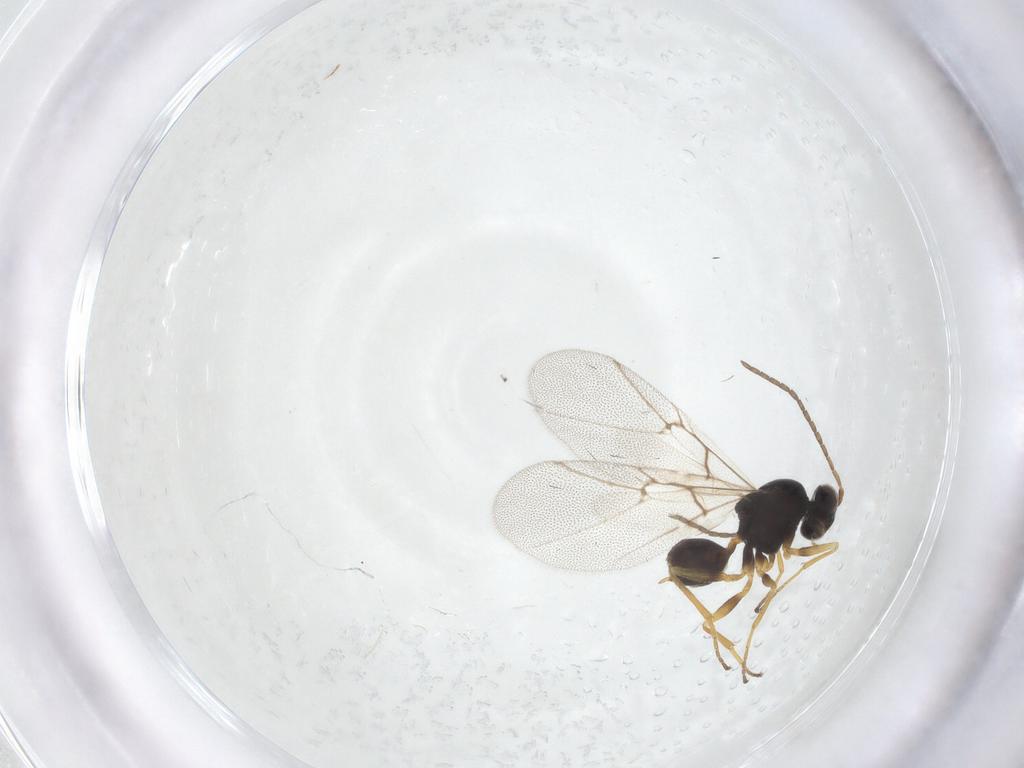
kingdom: Animalia
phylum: Arthropoda
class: Insecta
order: Hymenoptera
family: Cynipidae
